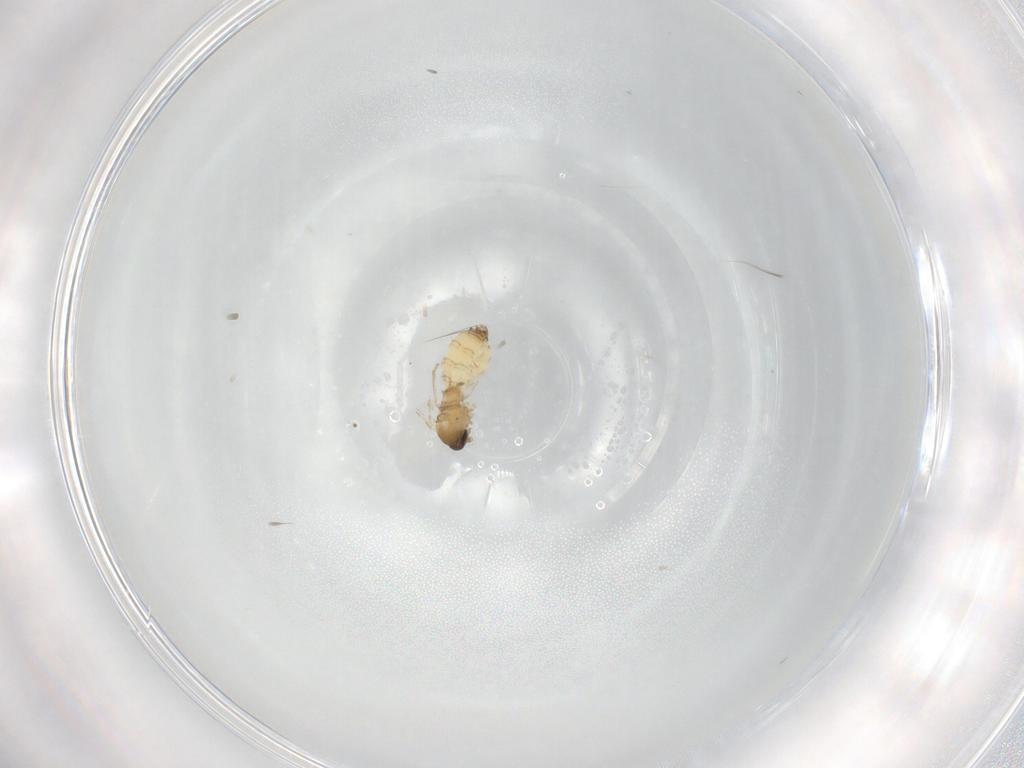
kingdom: Animalia
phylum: Arthropoda
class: Insecta
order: Diptera
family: Psychodidae
